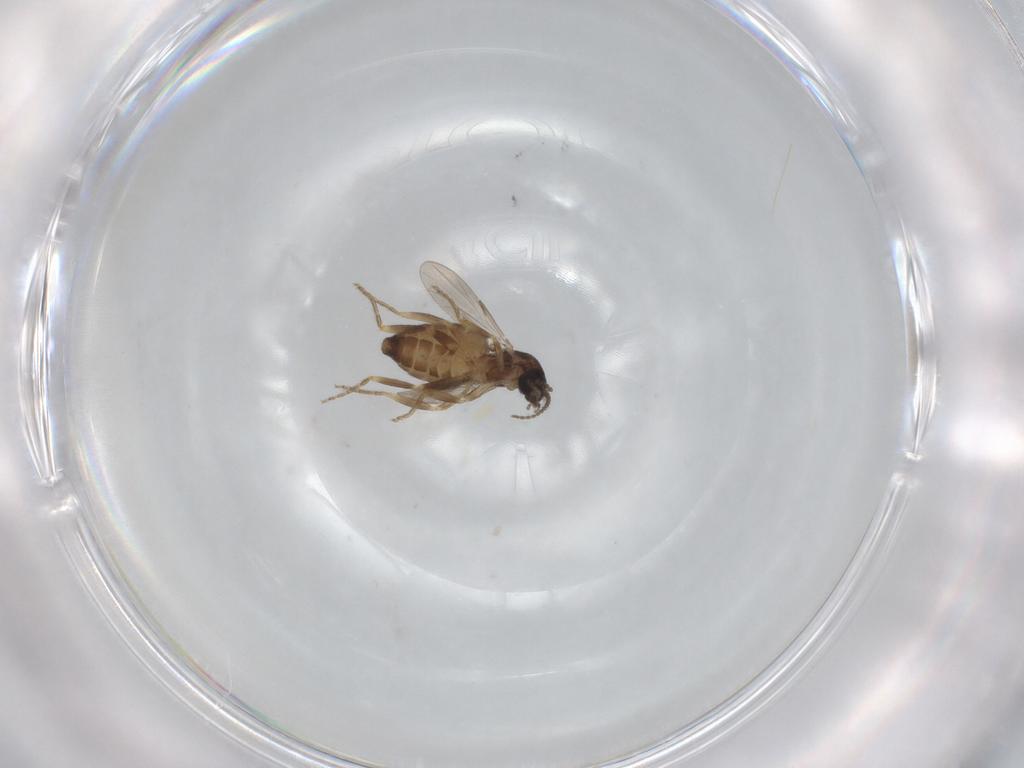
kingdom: Animalia
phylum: Arthropoda
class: Insecta
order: Diptera
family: Ceratopogonidae
